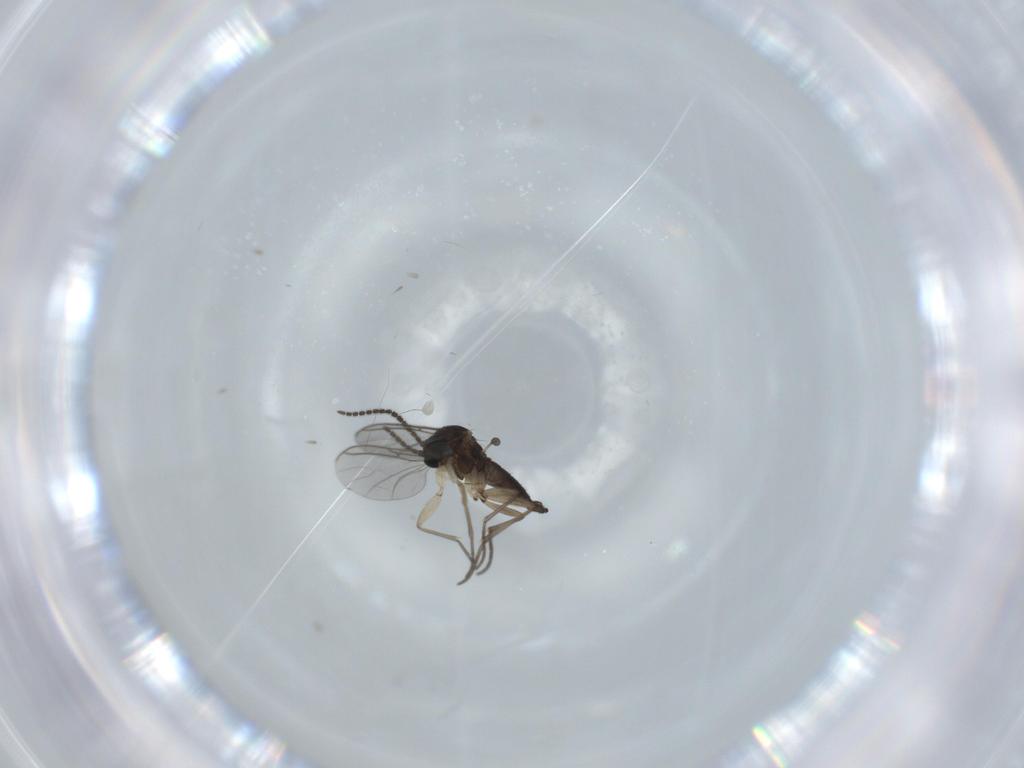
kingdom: Animalia
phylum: Arthropoda
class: Insecta
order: Diptera
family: Sciaridae
